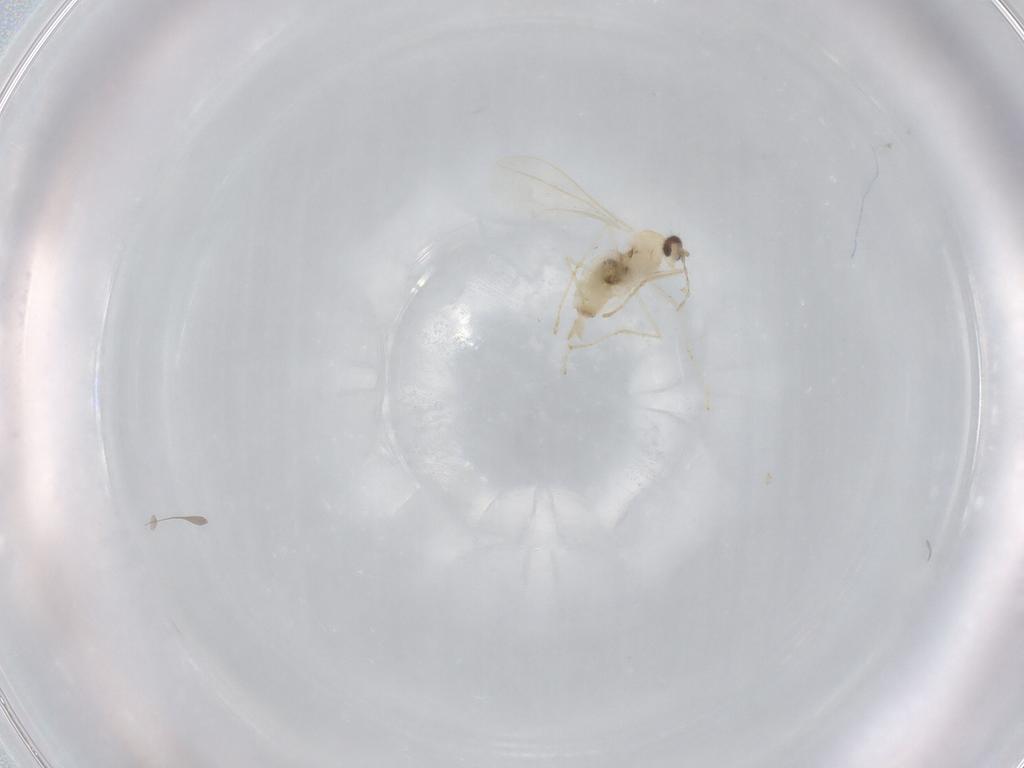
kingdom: Animalia
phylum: Arthropoda
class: Insecta
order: Diptera
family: Cecidomyiidae
